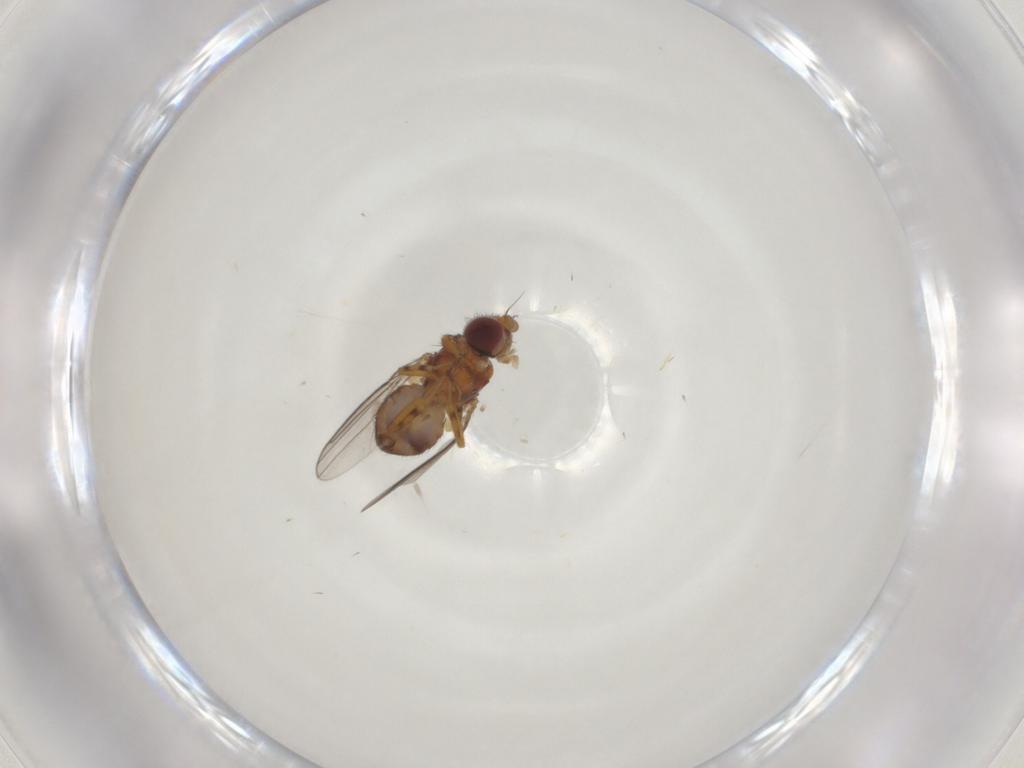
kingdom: Animalia
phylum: Arthropoda
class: Insecta
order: Diptera
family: Chloropidae
